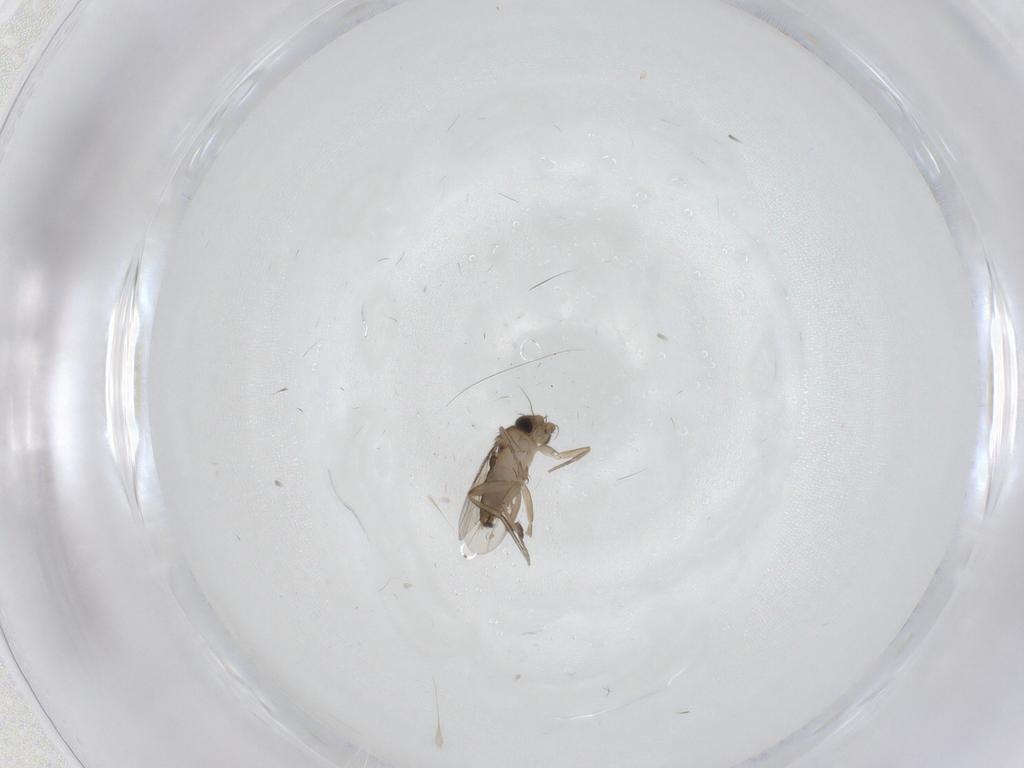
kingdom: Animalia
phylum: Arthropoda
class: Insecta
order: Diptera
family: Phoridae
